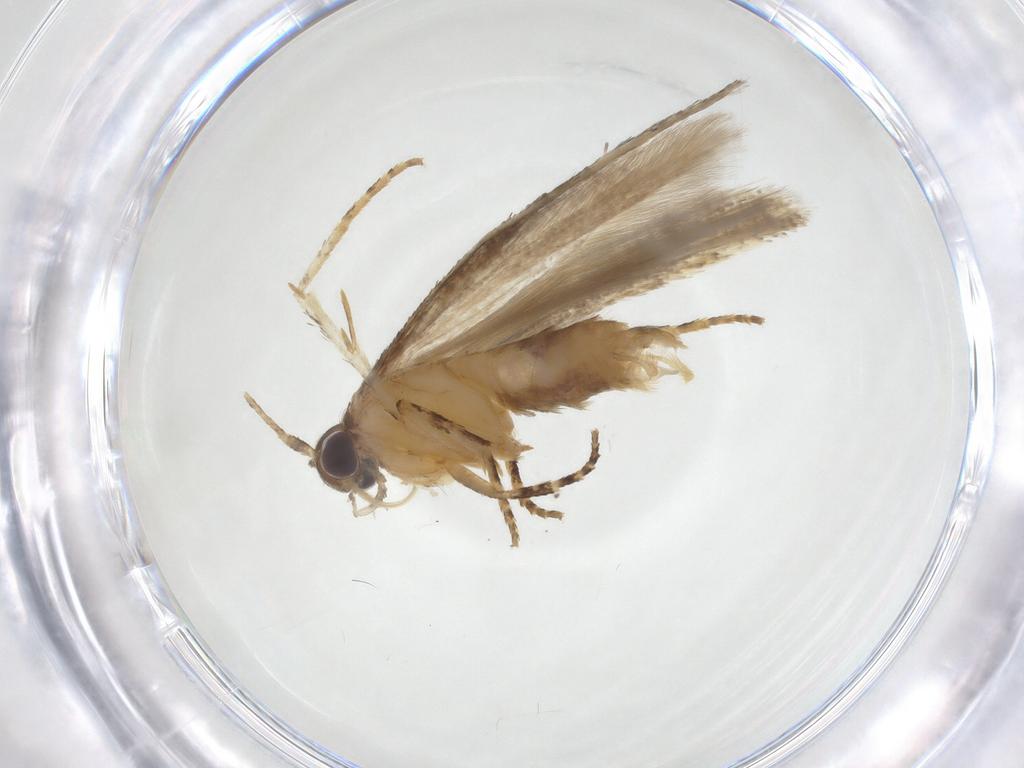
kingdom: Animalia
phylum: Arthropoda
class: Insecta
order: Lepidoptera
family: Gelechiidae
